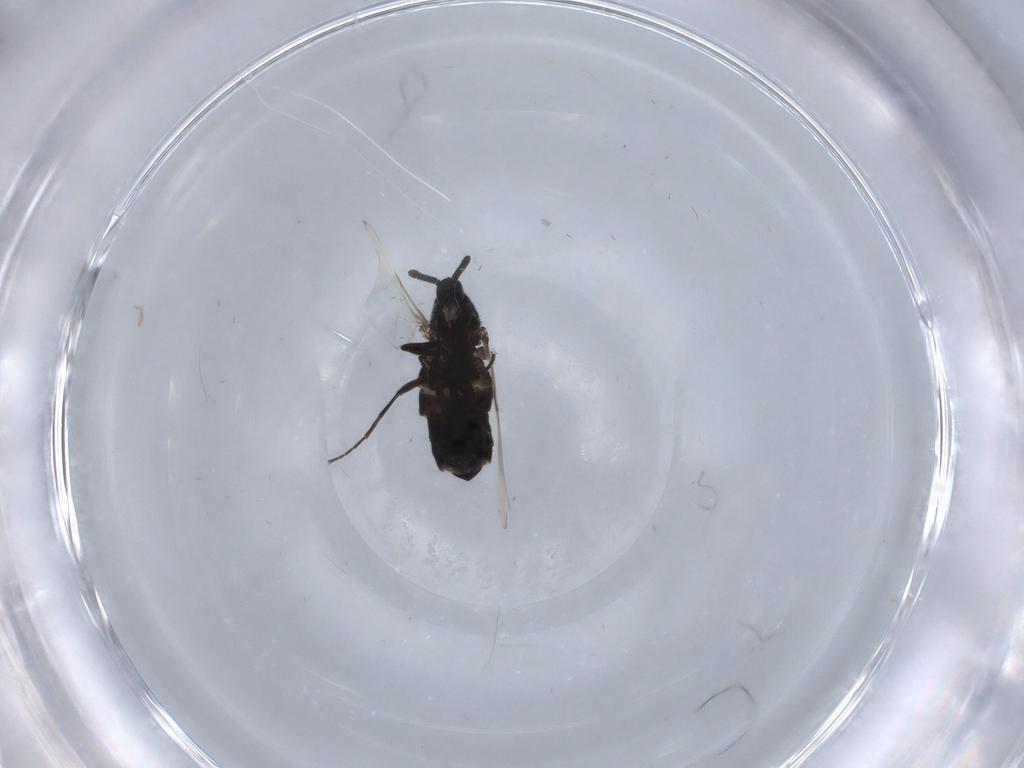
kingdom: Animalia
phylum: Arthropoda
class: Insecta
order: Diptera
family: Scatopsidae
